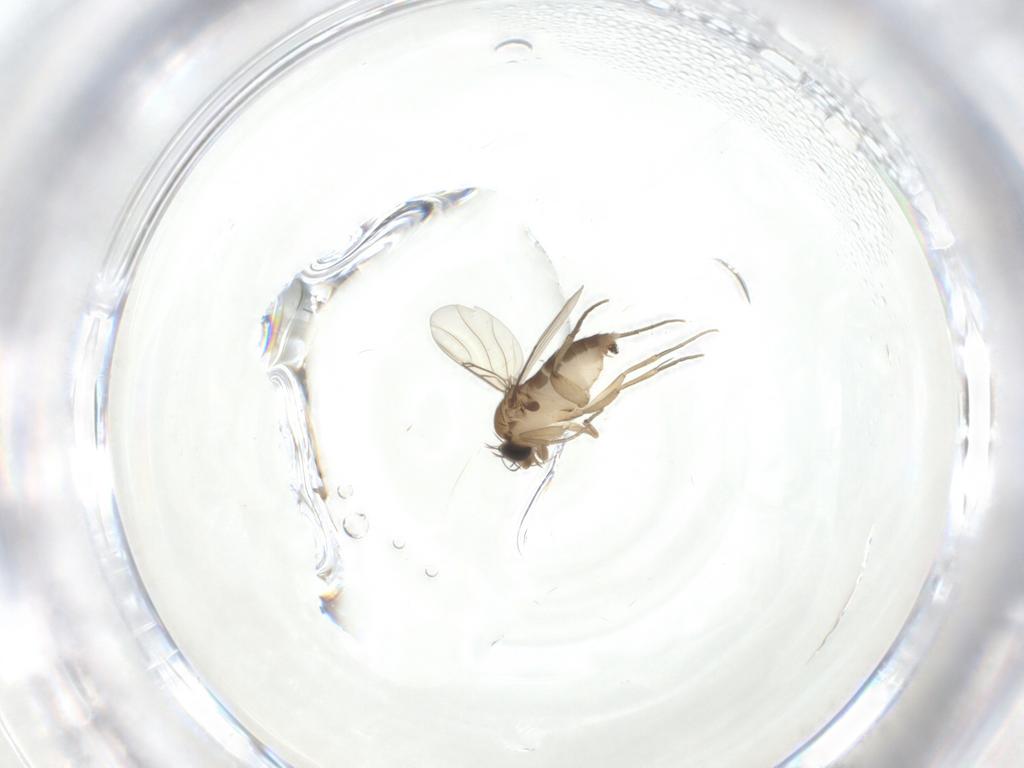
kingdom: Animalia
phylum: Arthropoda
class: Insecta
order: Diptera
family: Phoridae
